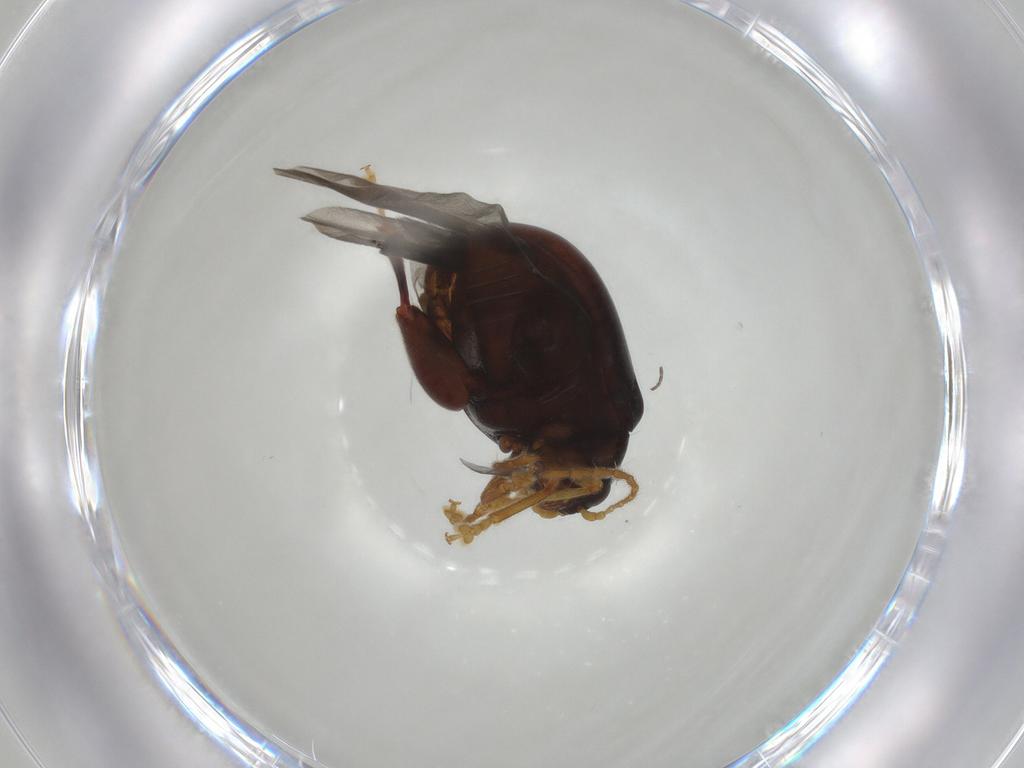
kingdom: Animalia
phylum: Arthropoda
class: Insecta
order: Coleoptera
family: Chrysomelidae
